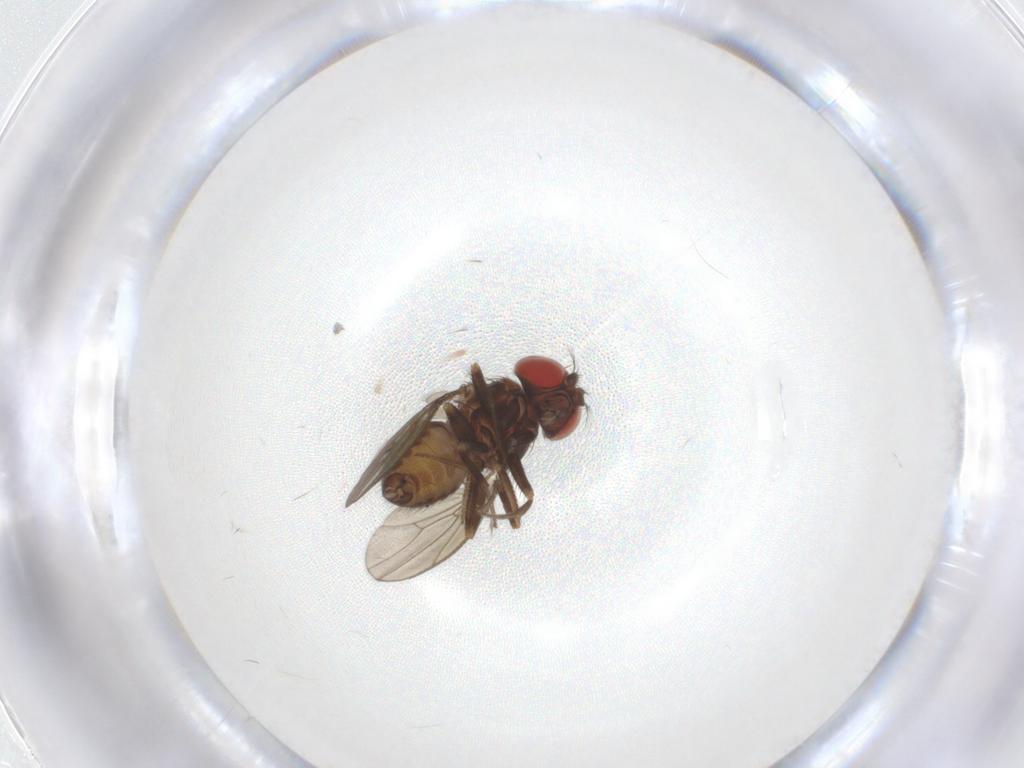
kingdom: Animalia
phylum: Arthropoda
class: Insecta
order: Diptera
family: Drosophilidae
